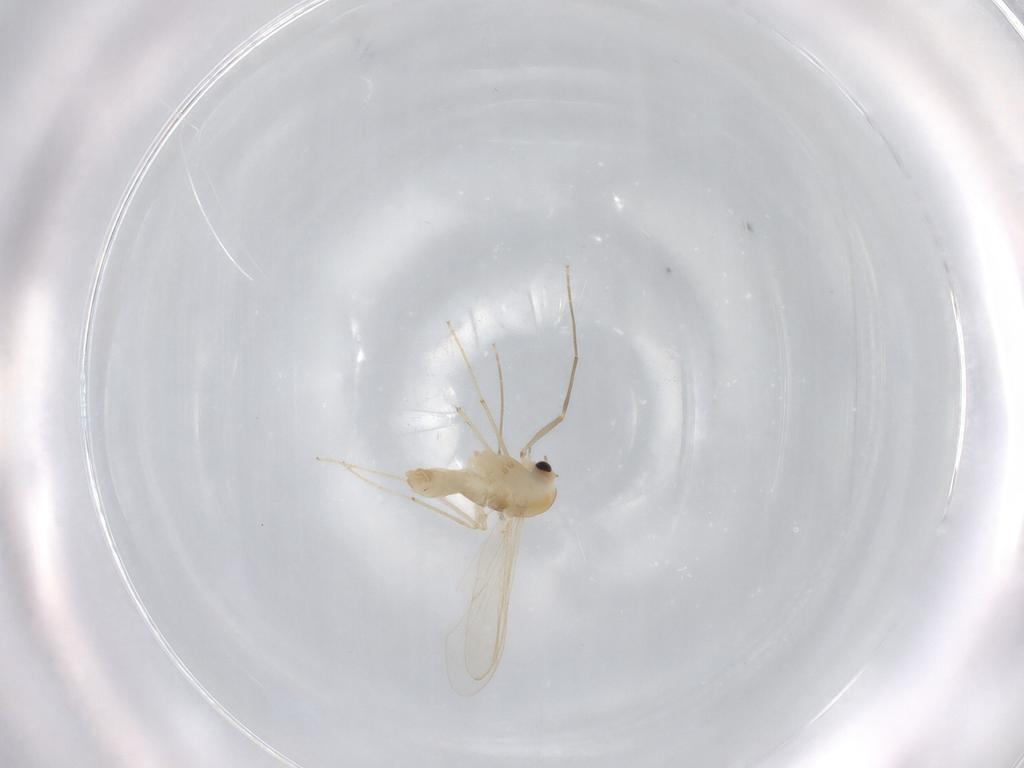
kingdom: Animalia
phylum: Arthropoda
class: Insecta
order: Diptera
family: Chironomidae
